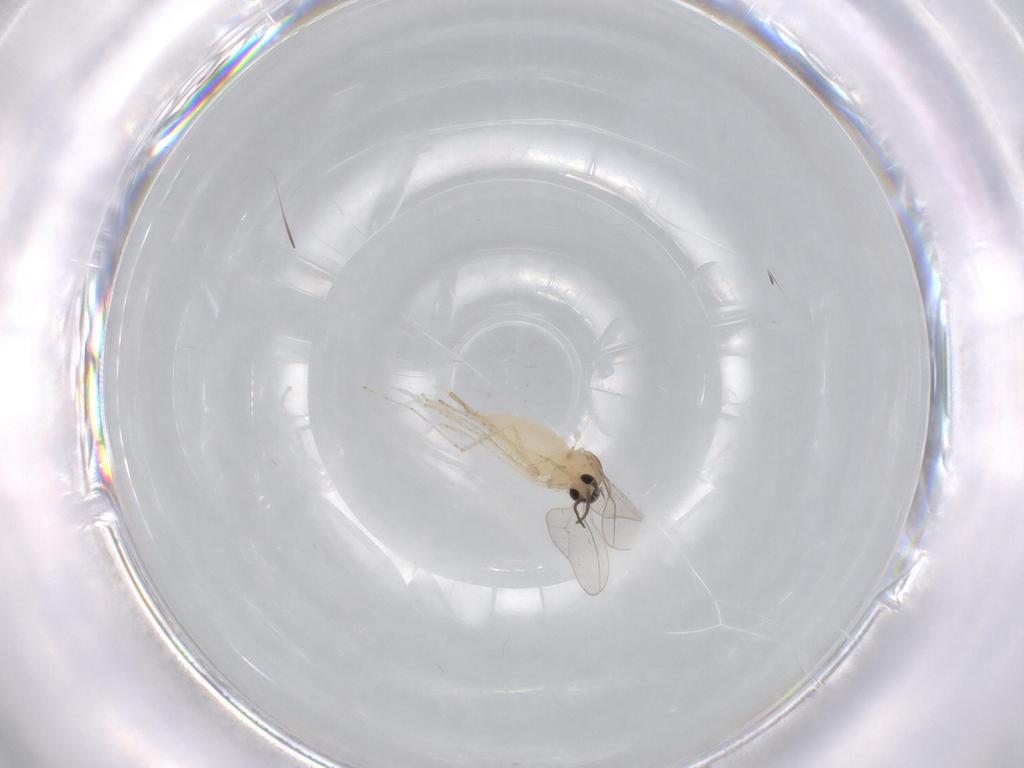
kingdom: Animalia
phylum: Arthropoda
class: Insecta
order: Diptera
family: Cecidomyiidae
